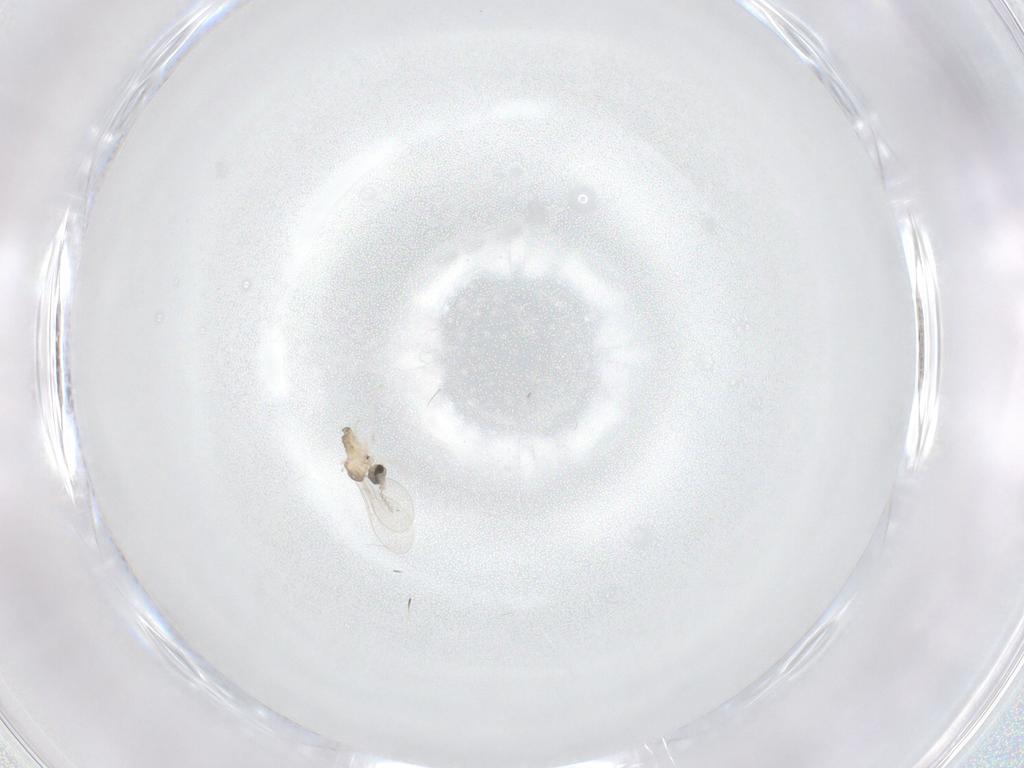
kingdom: Animalia
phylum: Arthropoda
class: Insecta
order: Diptera
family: Cecidomyiidae
